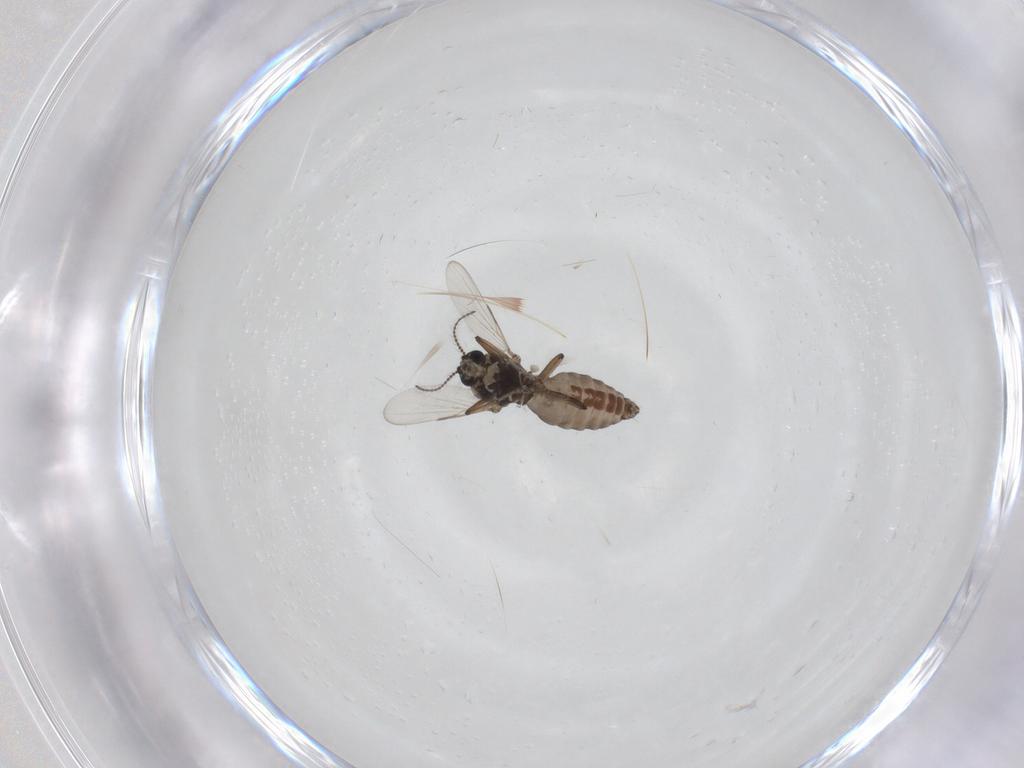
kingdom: Animalia
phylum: Arthropoda
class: Insecta
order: Diptera
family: Ceratopogonidae
